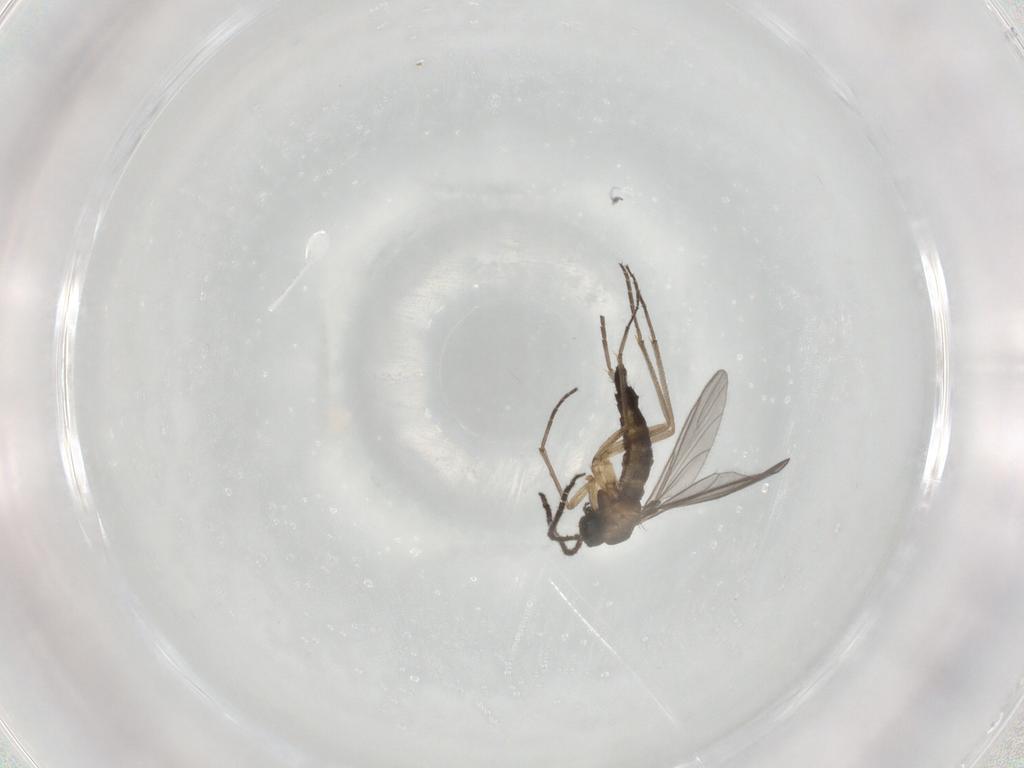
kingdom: Animalia
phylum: Arthropoda
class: Insecta
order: Diptera
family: Sciaridae
